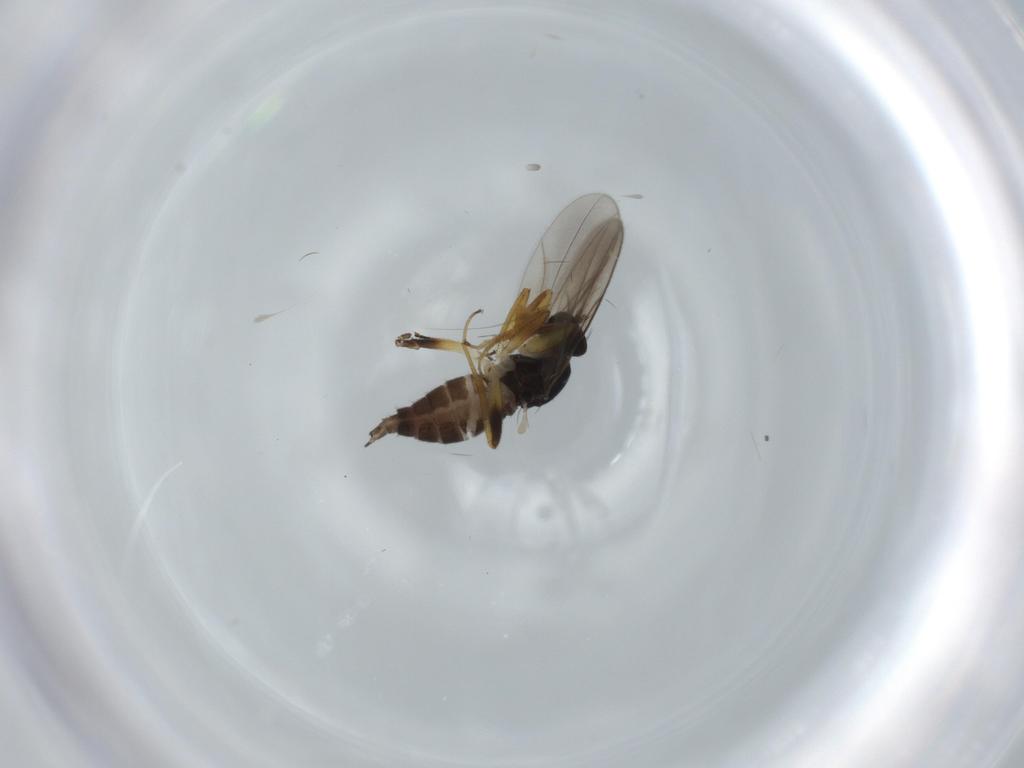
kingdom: Animalia
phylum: Arthropoda
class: Insecta
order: Diptera
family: Hybotidae
